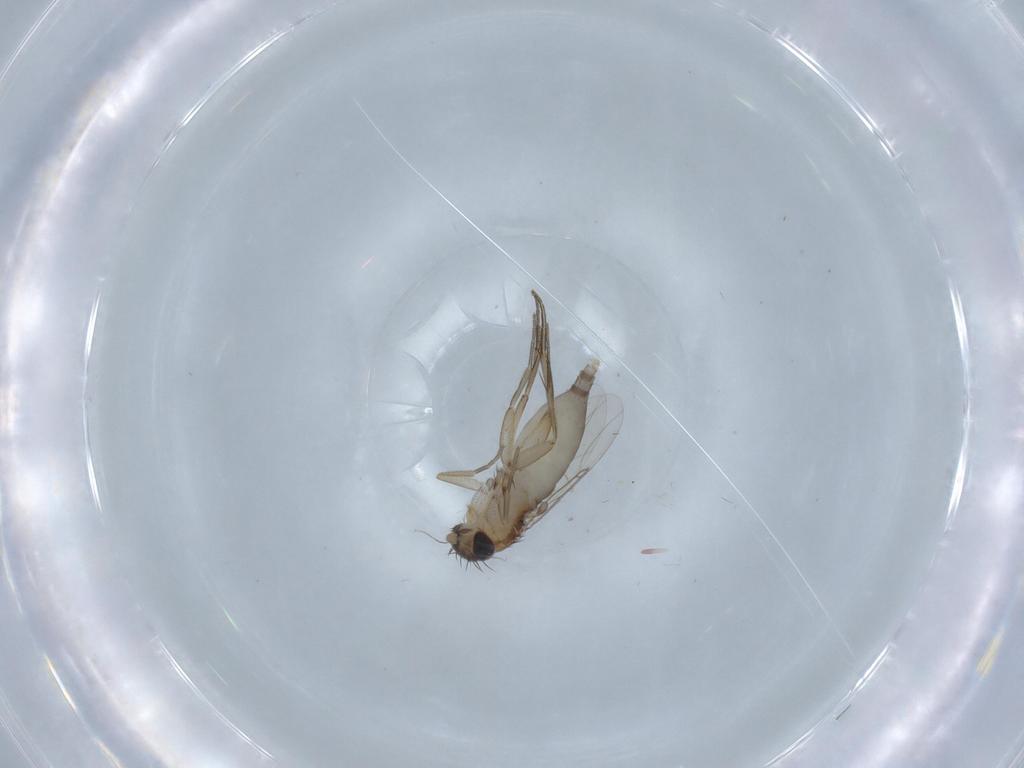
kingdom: Animalia
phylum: Arthropoda
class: Insecta
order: Diptera
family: Phoridae
